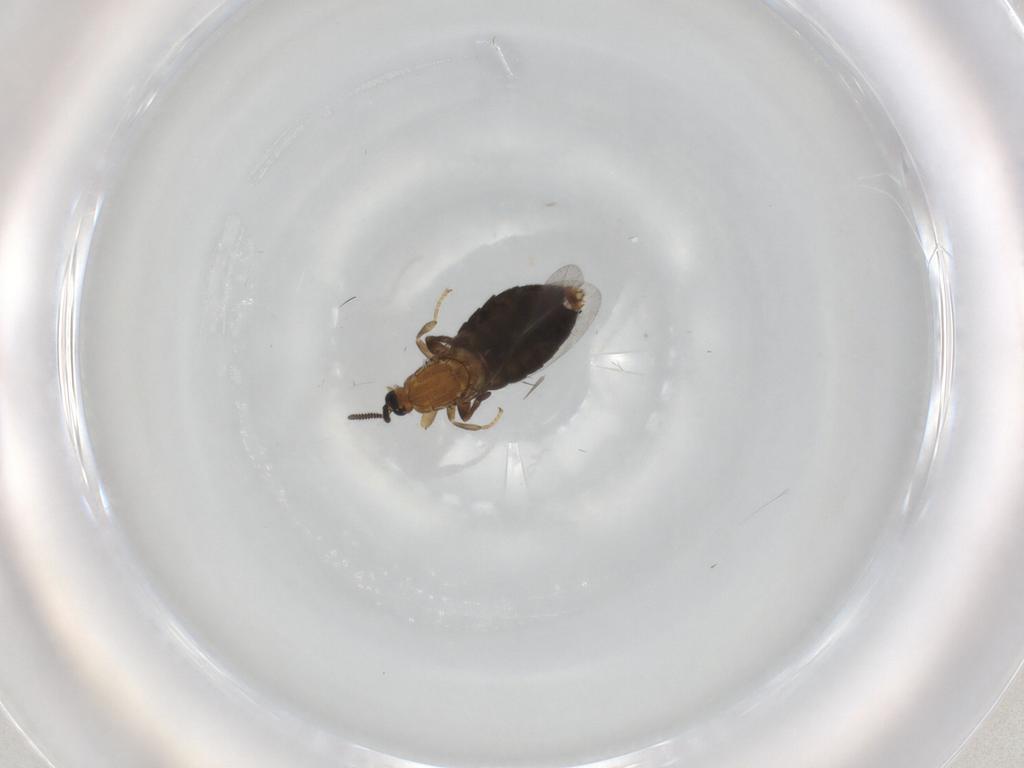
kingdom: Animalia
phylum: Arthropoda
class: Insecta
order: Diptera
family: Scatopsidae
